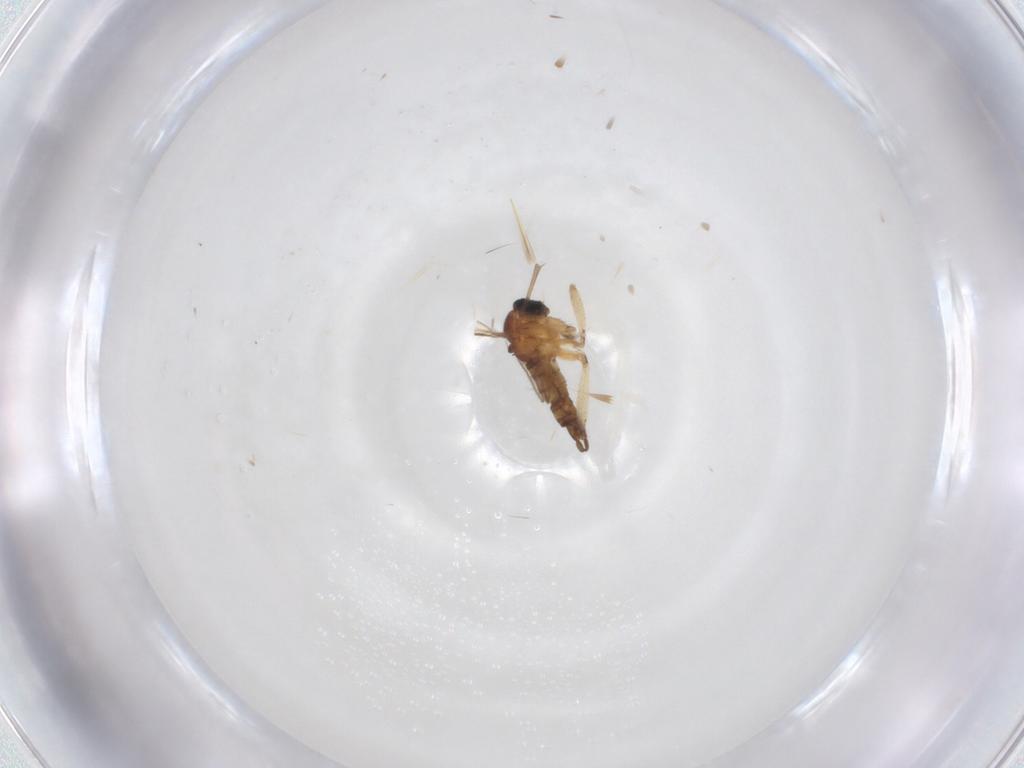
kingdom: Animalia
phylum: Arthropoda
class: Insecta
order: Diptera
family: Sciaridae
